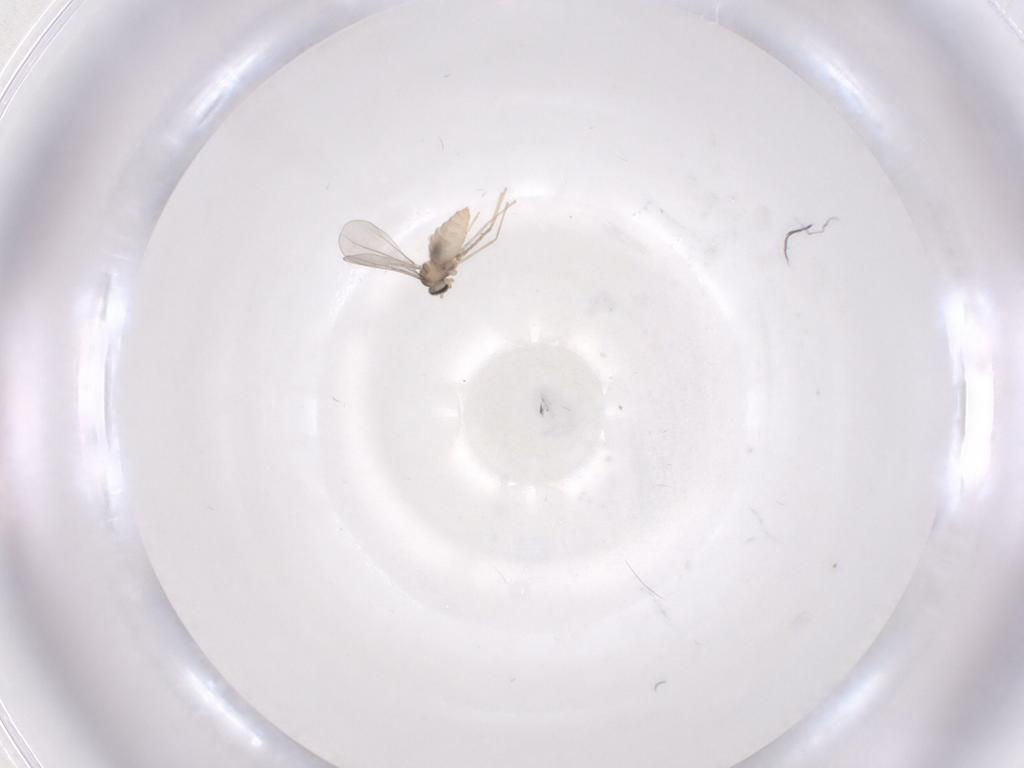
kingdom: Animalia
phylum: Arthropoda
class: Insecta
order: Diptera
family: Cecidomyiidae
